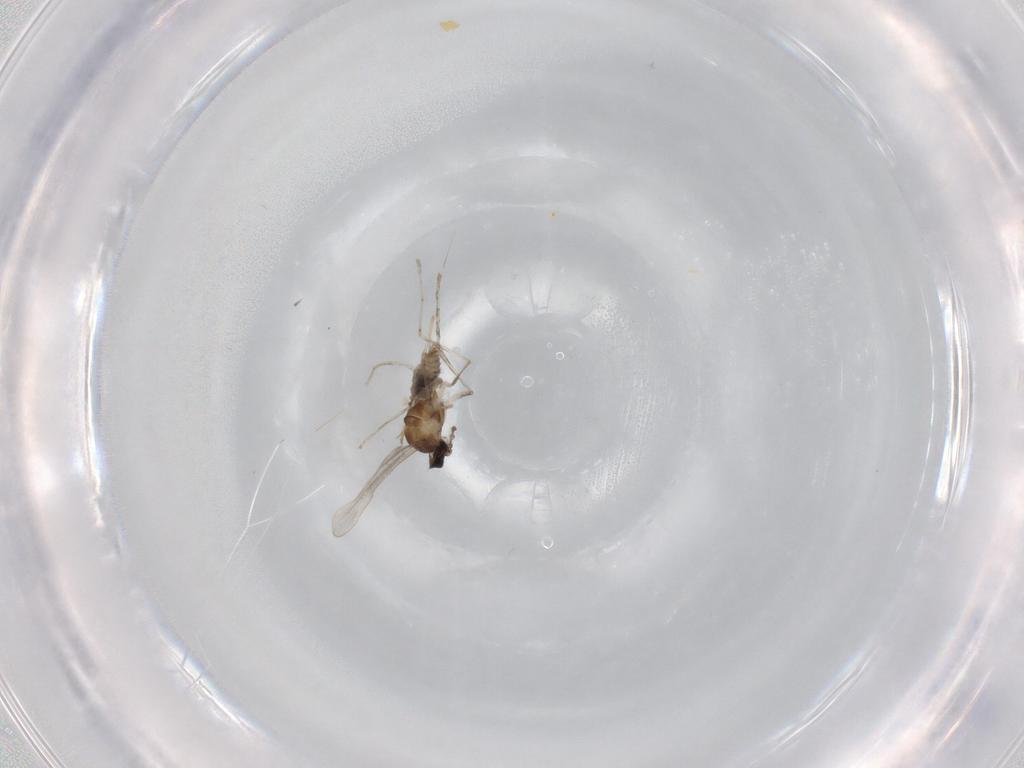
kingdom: Animalia
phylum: Arthropoda
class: Insecta
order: Diptera
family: Cecidomyiidae
